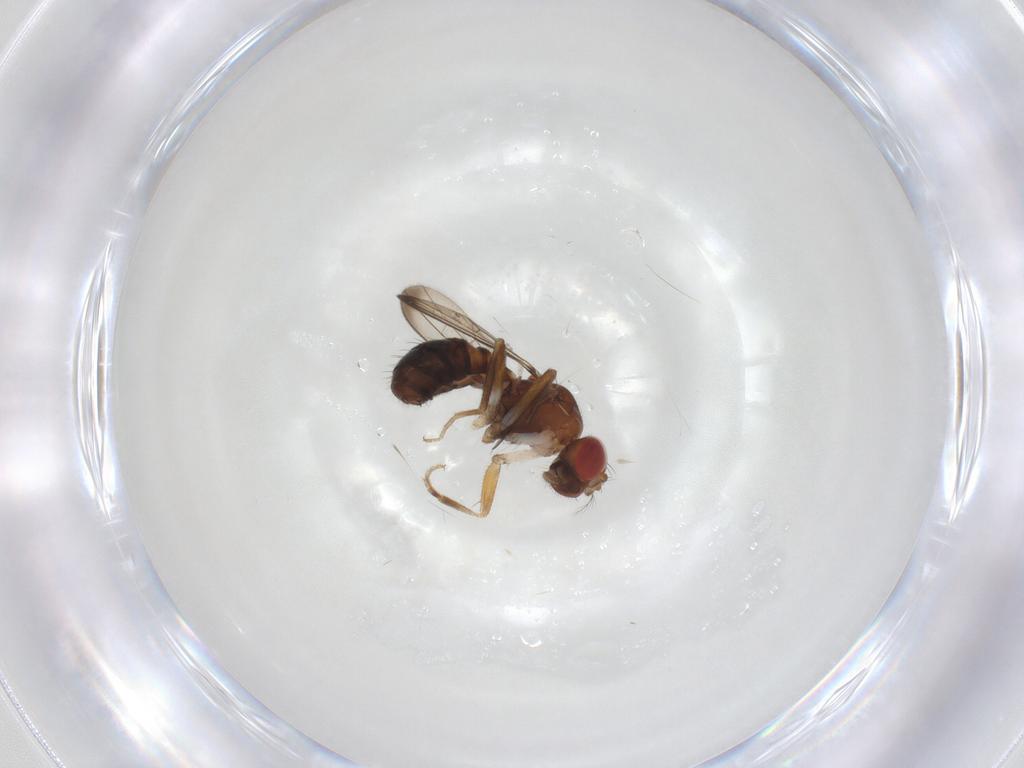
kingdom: Animalia
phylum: Arthropoda
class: Insecta
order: Diptera
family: Drosophilidae
